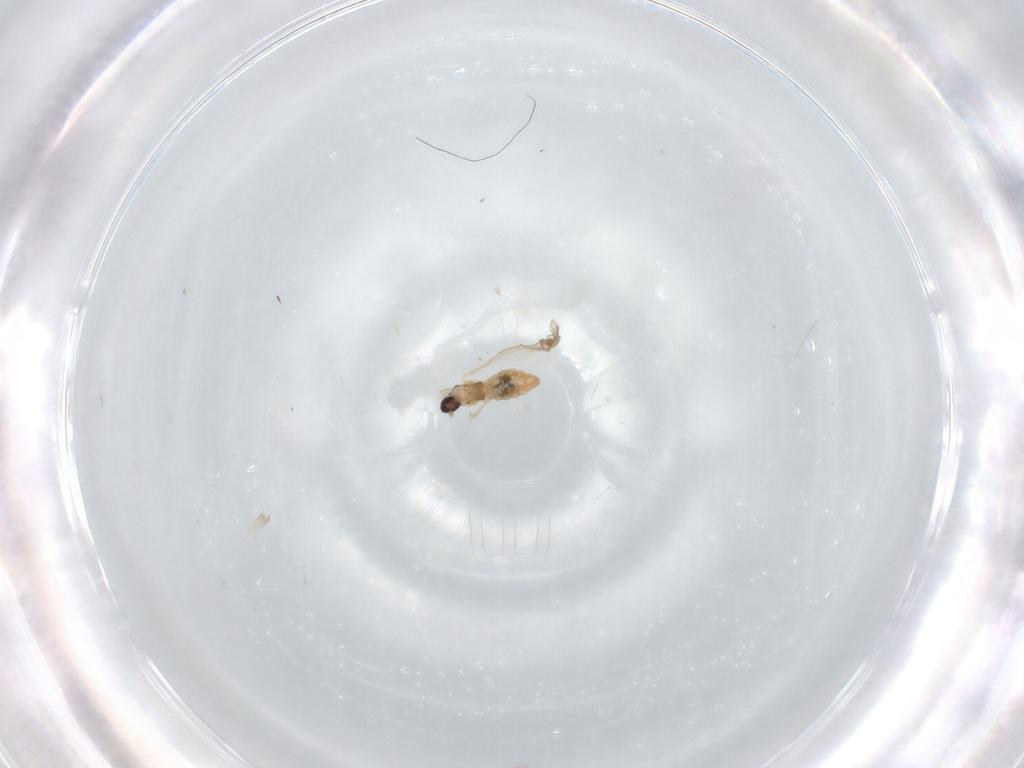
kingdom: Animalia
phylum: Arthropoda
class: Insecta
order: Diptera
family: Cecidomyiidae
